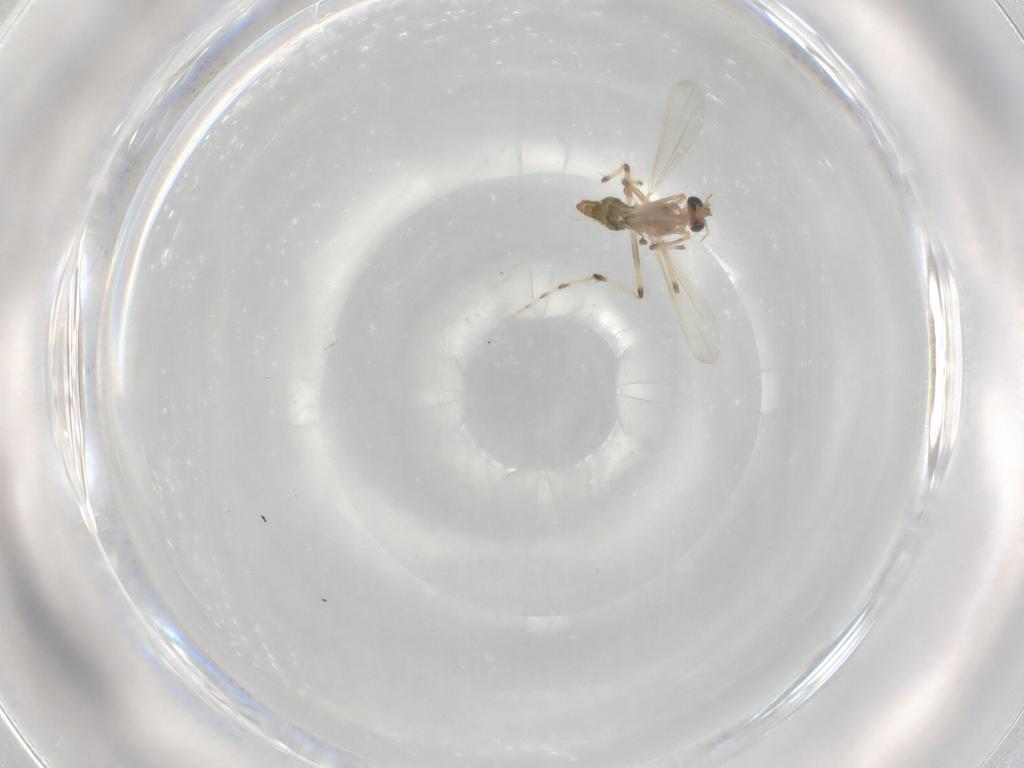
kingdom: Animalia
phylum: Arthropoda
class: Insecta
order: Diptera
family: Chironomidae
